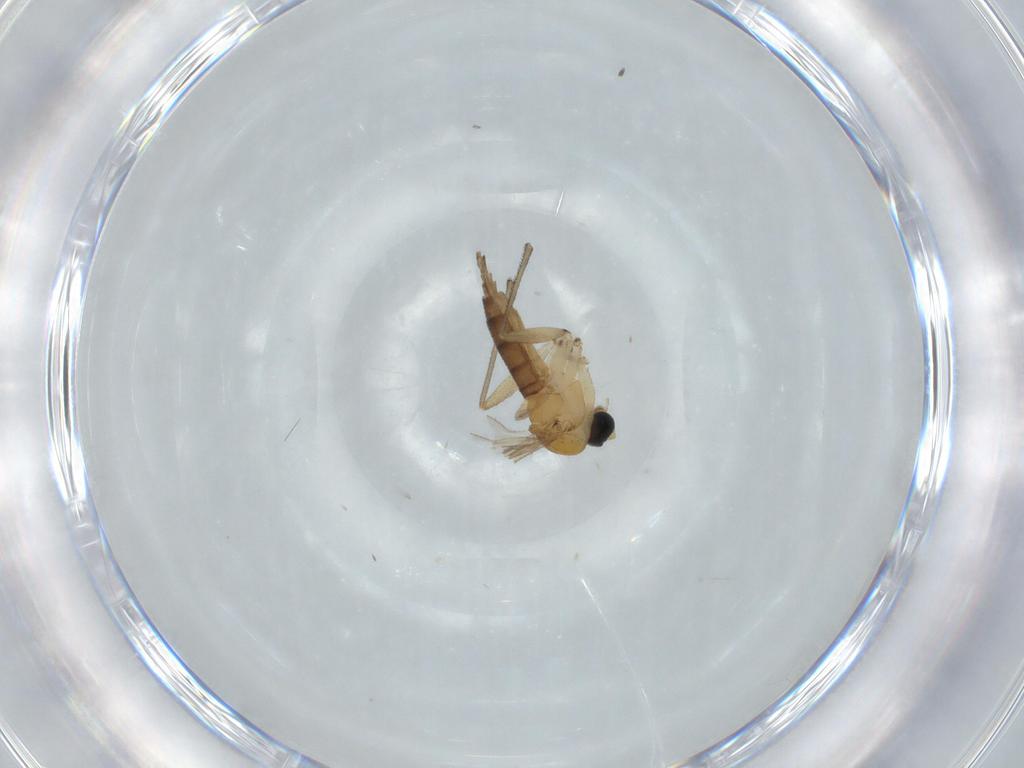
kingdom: Animalia
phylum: Arthropoda
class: Insecta
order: Diptera
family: Sciaridae
